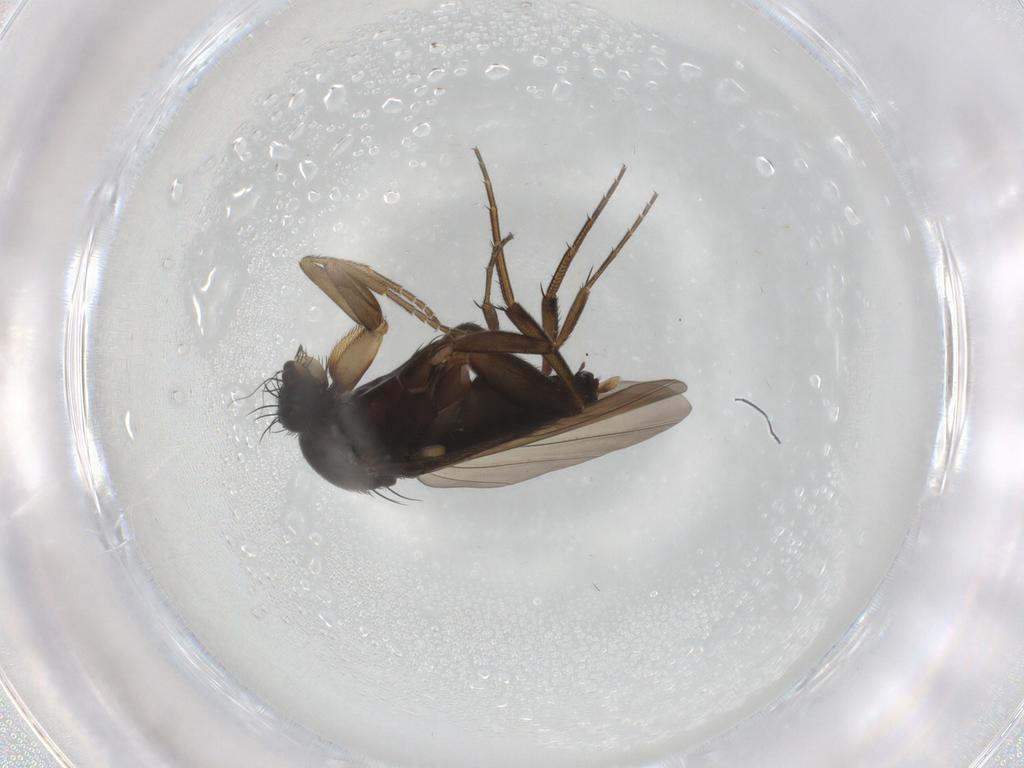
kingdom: Animalia
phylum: Arthropoda
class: Insecta
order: Diptera
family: Phoridae
